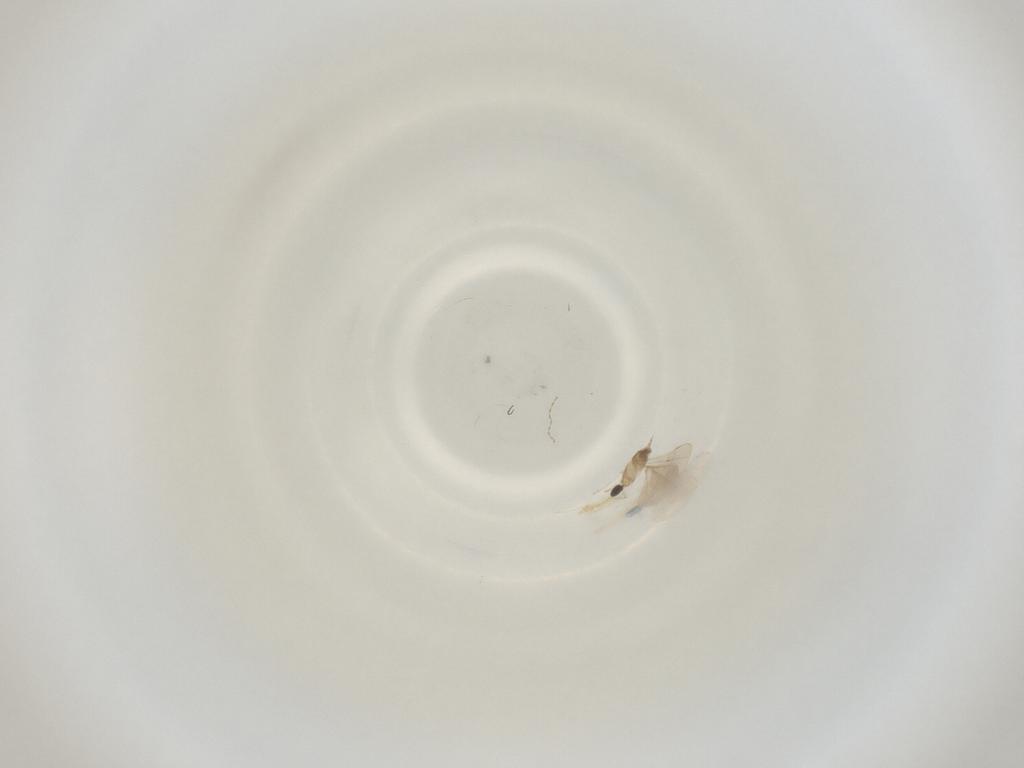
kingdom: Animalia
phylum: Arthropoda
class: Insecta
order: Diptera
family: Cecidomyiidae
